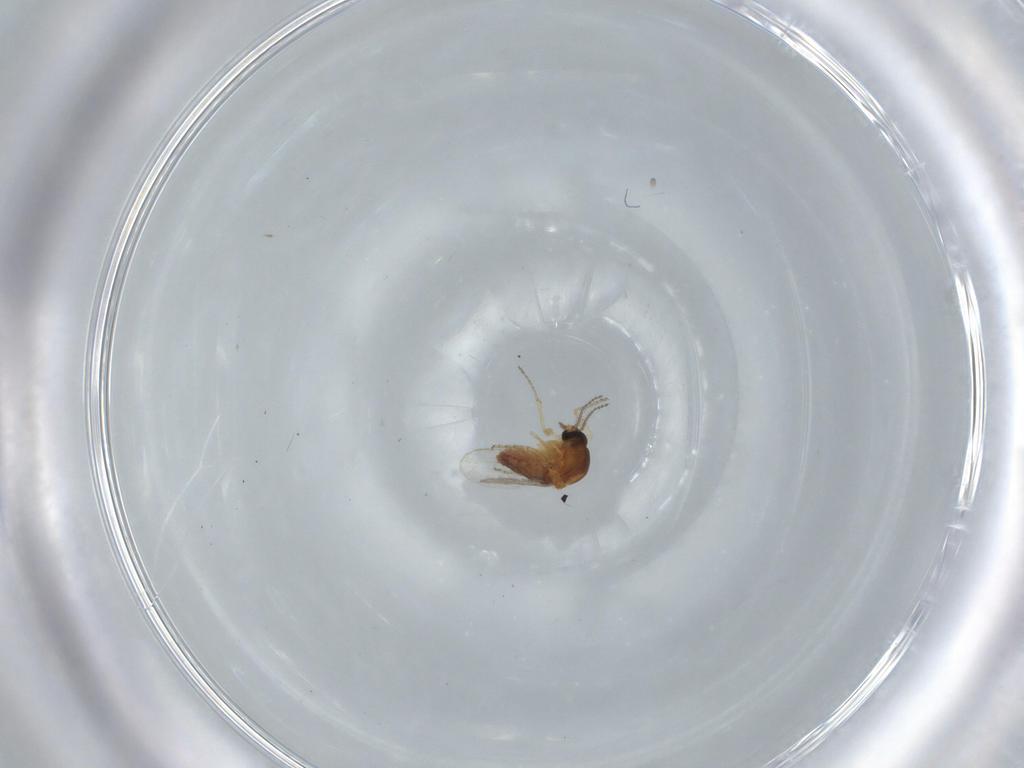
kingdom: Animalia
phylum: Arthropoda
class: Insecta
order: Diptera
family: Ceratopogonidae
